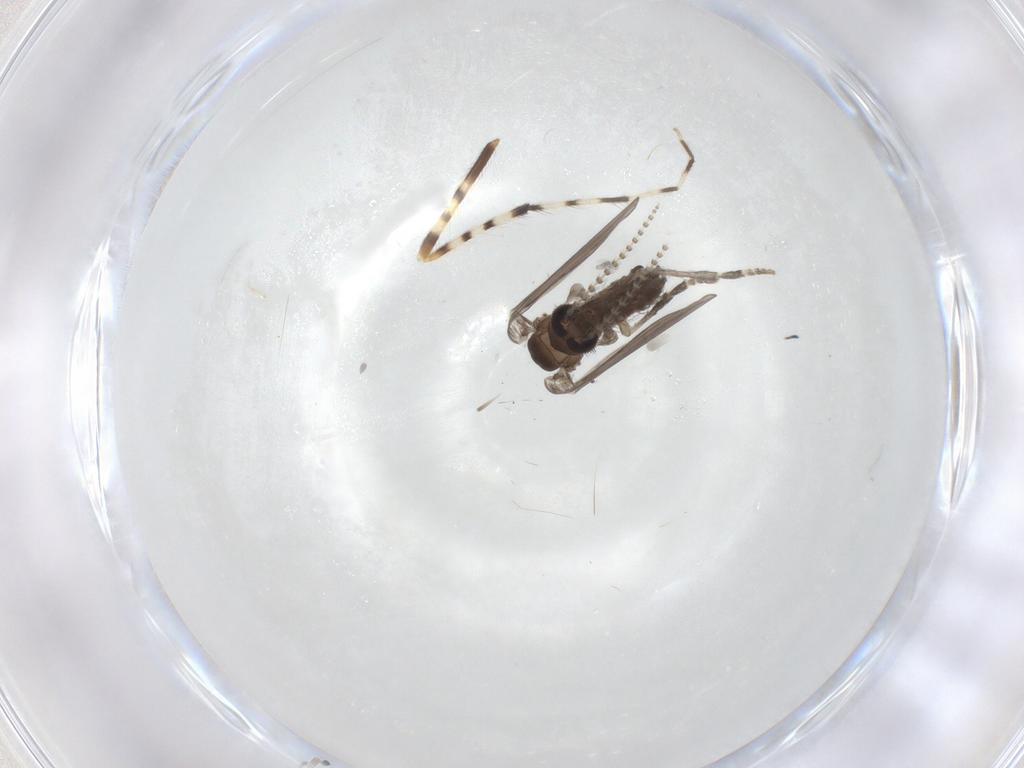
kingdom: Animalia
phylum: Arthropoda
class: Insecta
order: Diptera
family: Psychodidae
